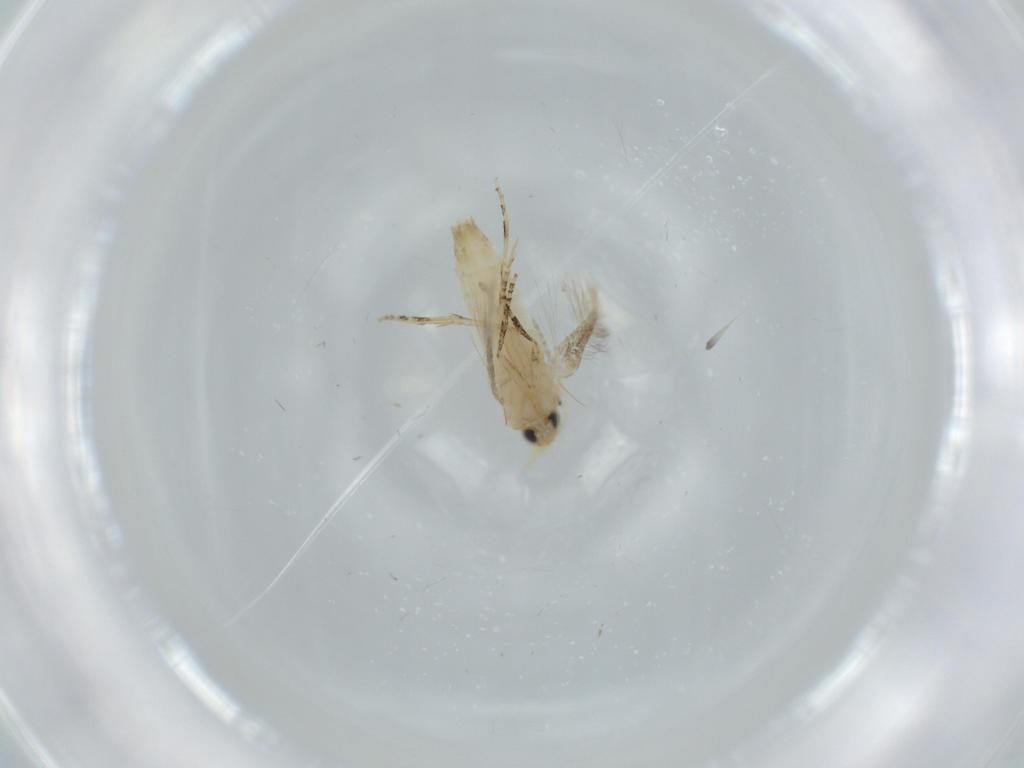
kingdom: Animalia
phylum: Arthropoda
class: Insecta
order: Lepidoptera
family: Bucculatricidae
